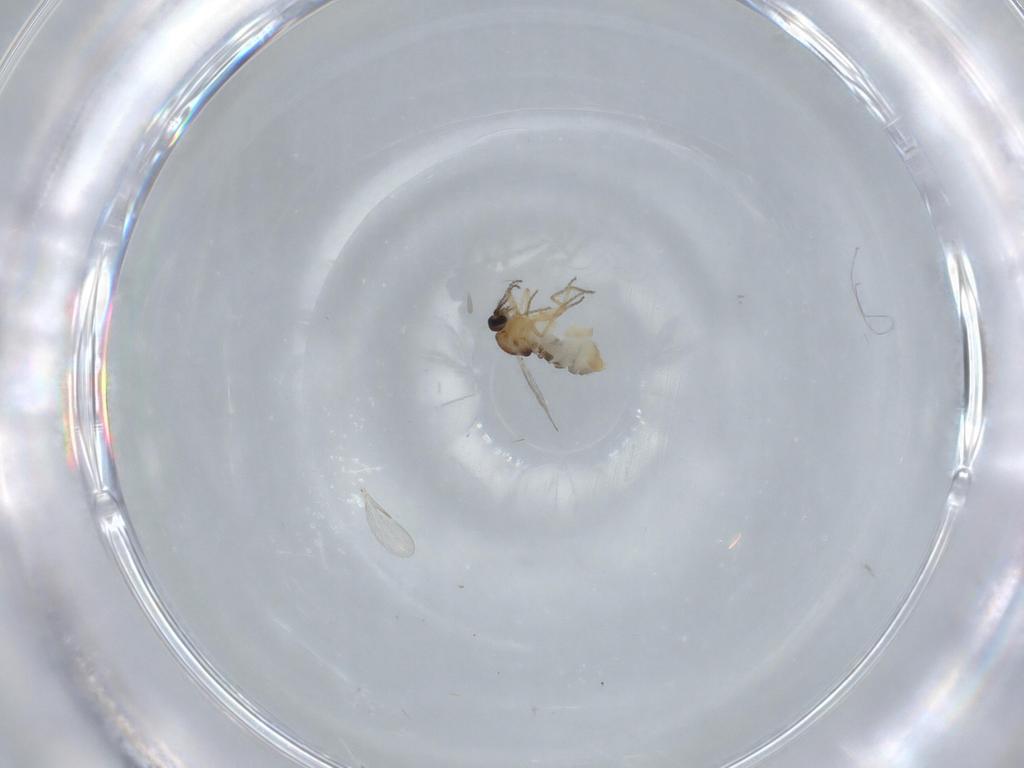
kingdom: Animalia
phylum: Arthropoda
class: Insecta
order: Diptera
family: Ceratopogonidae
